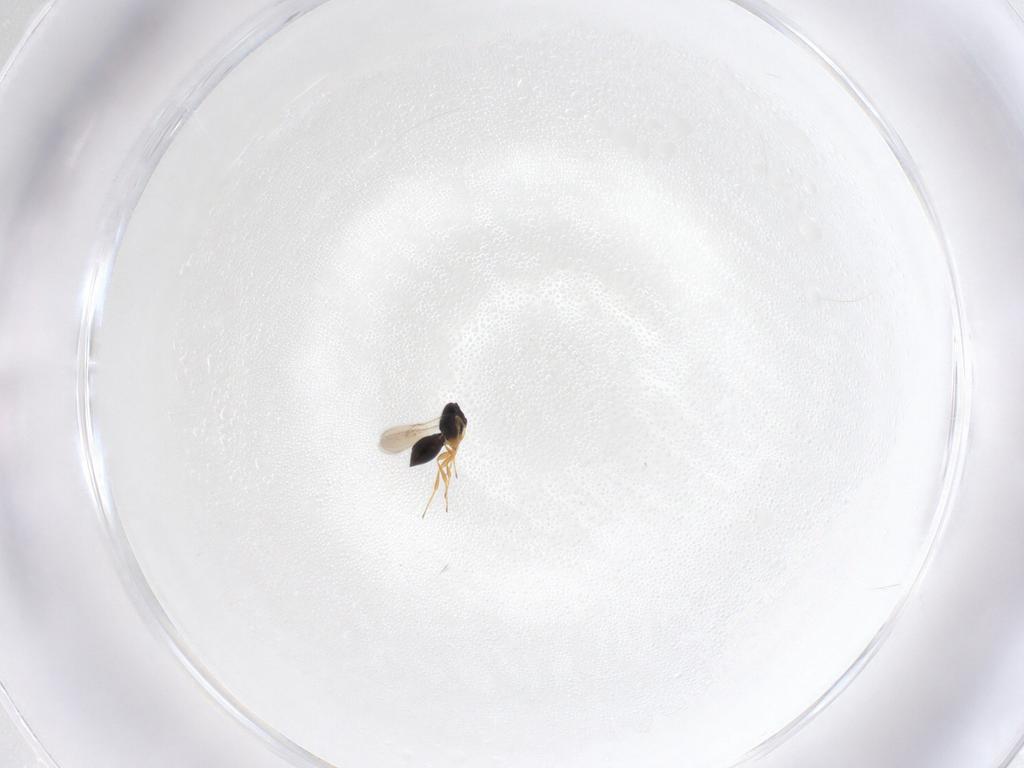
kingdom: Animalia
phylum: Arthropoda
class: Insecta
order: Hymenoptera
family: Scelionidae
